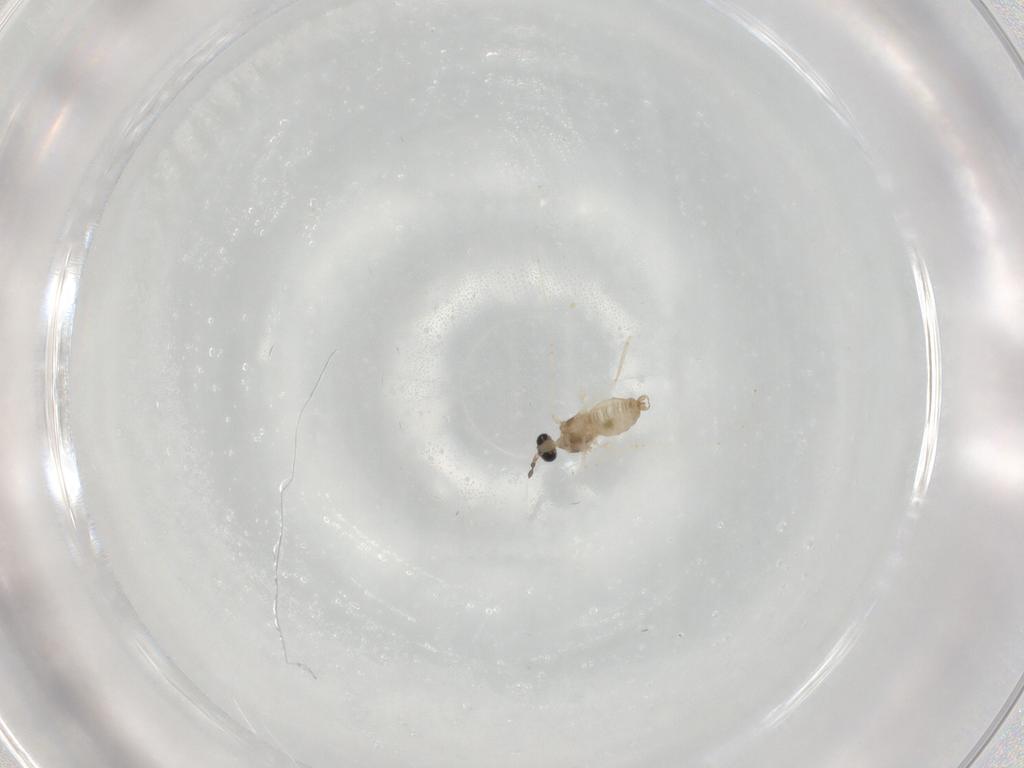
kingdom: Animalia
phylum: Arthropoda
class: Insecta
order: Diptera
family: Cecidomyiidae
